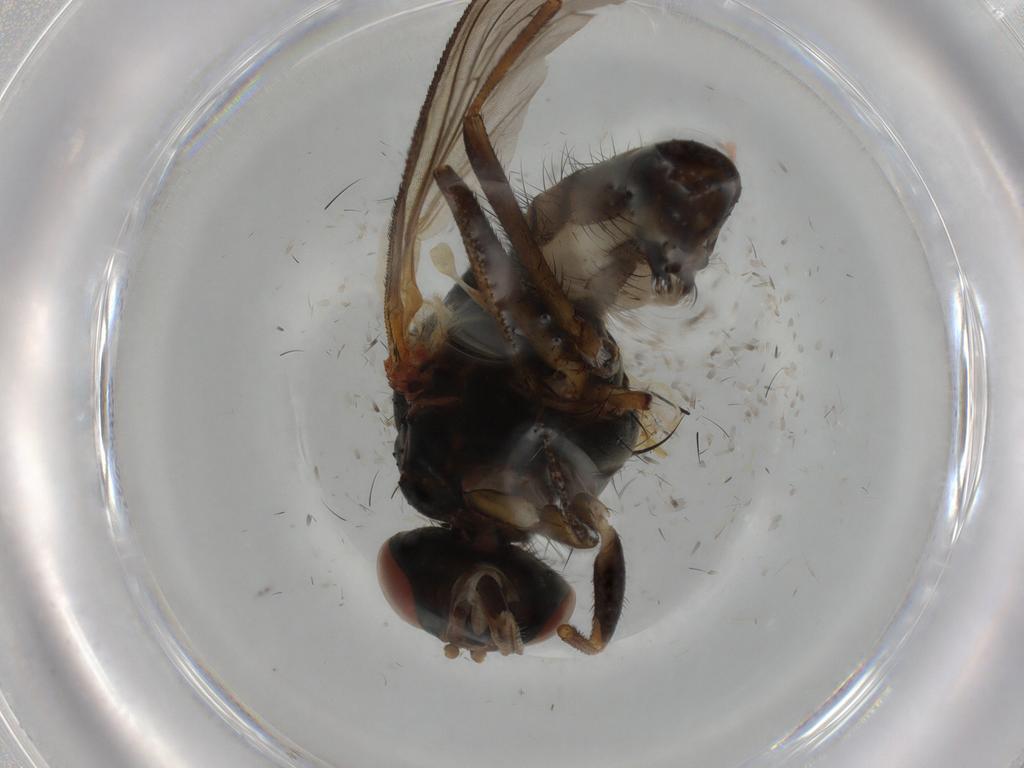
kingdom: Animalia
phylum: Arthropoda
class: Insecta
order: Diptera
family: Anthomyiidae
